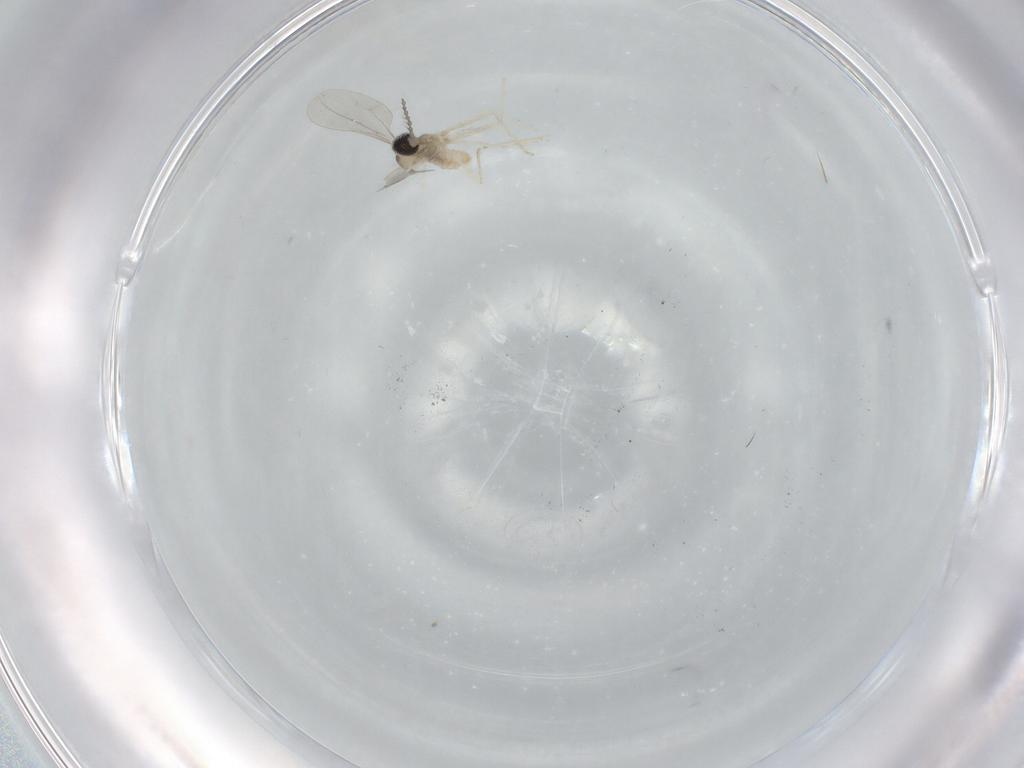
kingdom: Animalia
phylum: Arthropoda
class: Insecta
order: Diptera
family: Cecidomyiidae
